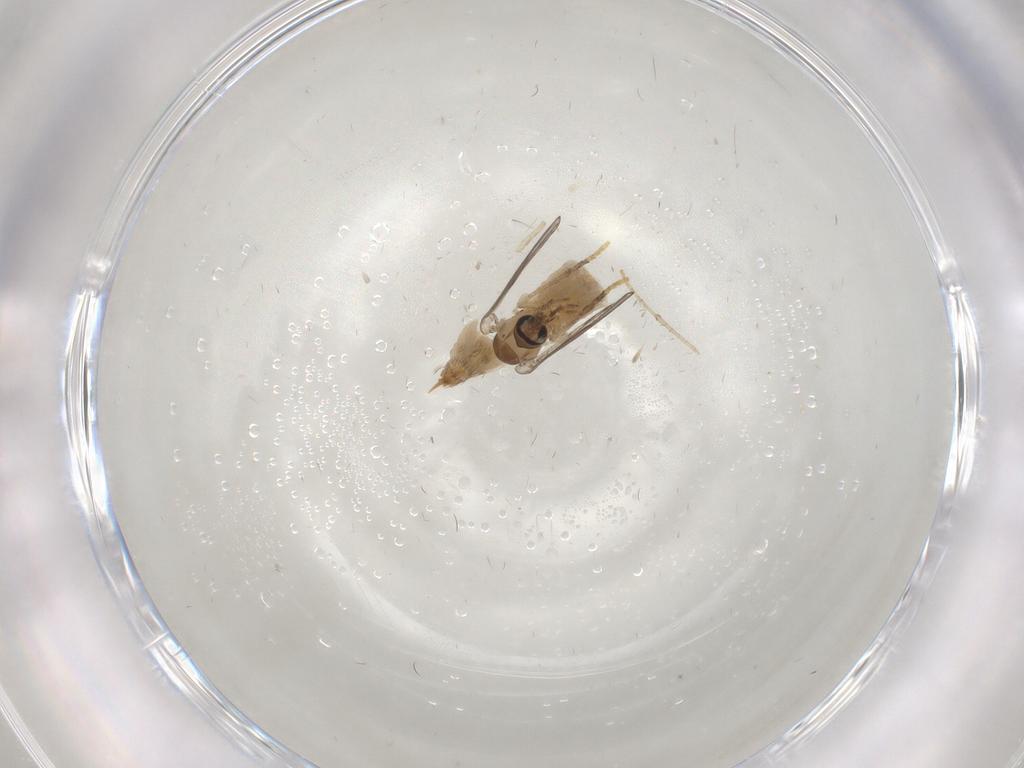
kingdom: Animalia
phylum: Arthropoda
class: Insecta
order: Diptera
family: Psychodidae
